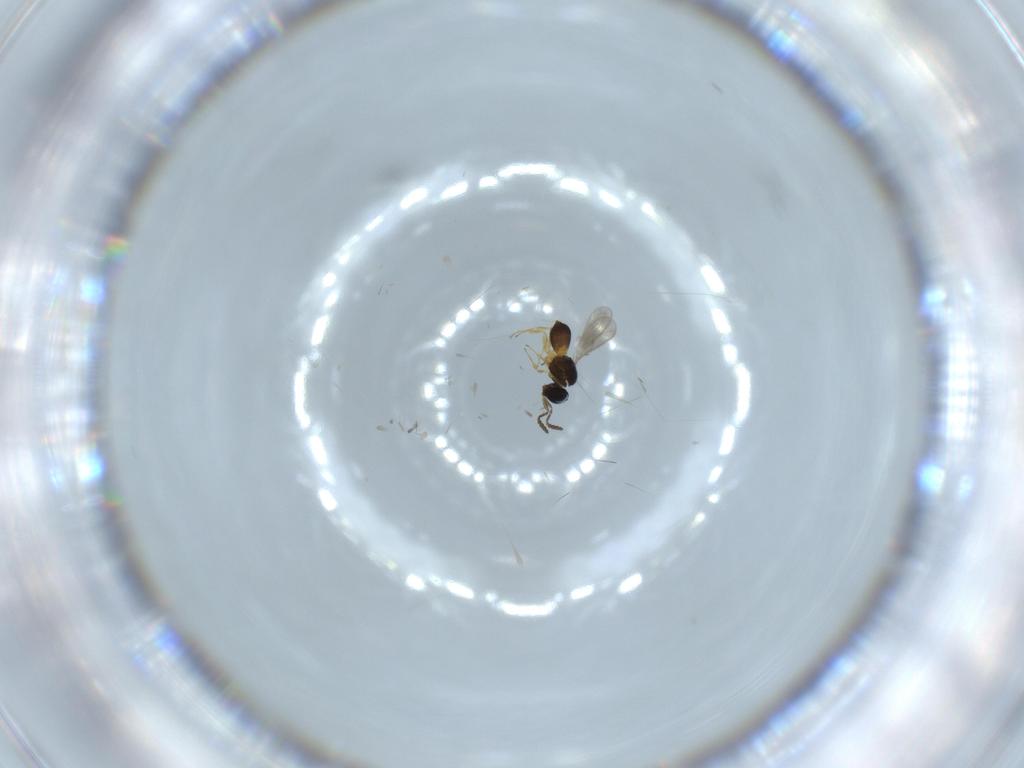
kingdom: Animalia
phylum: Arthropoda
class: Insecta
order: Hymenoptera
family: Scelionidae
